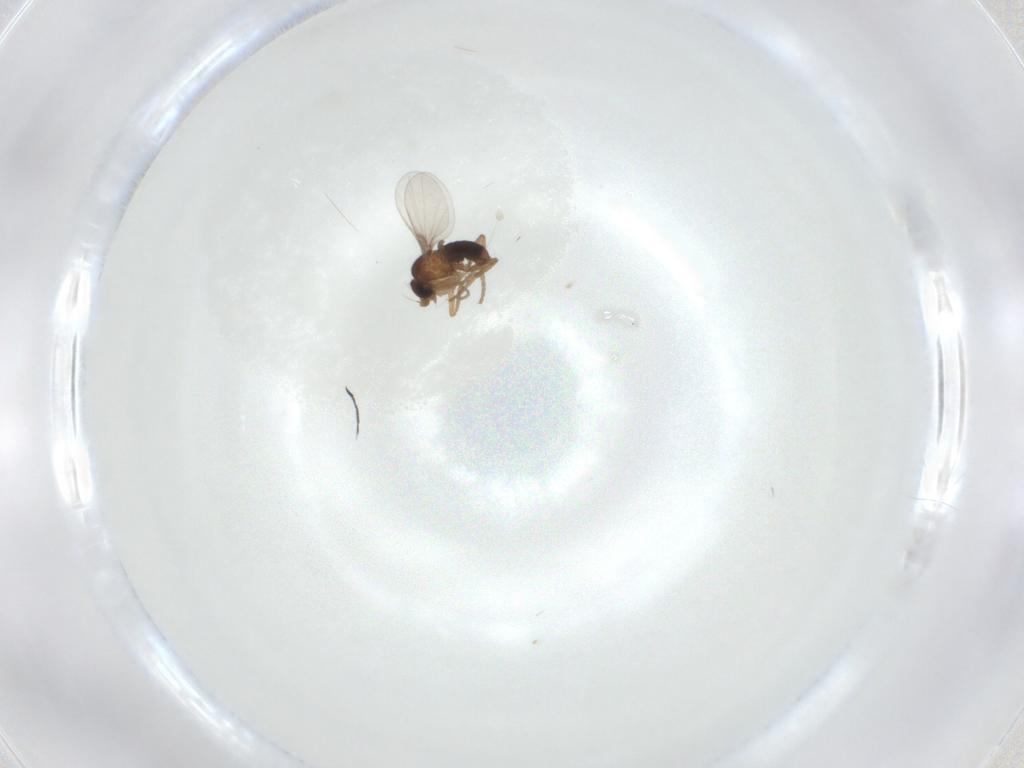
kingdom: Animalia
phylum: Arthropoda
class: Insecta
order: Diptera
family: Phoridae
